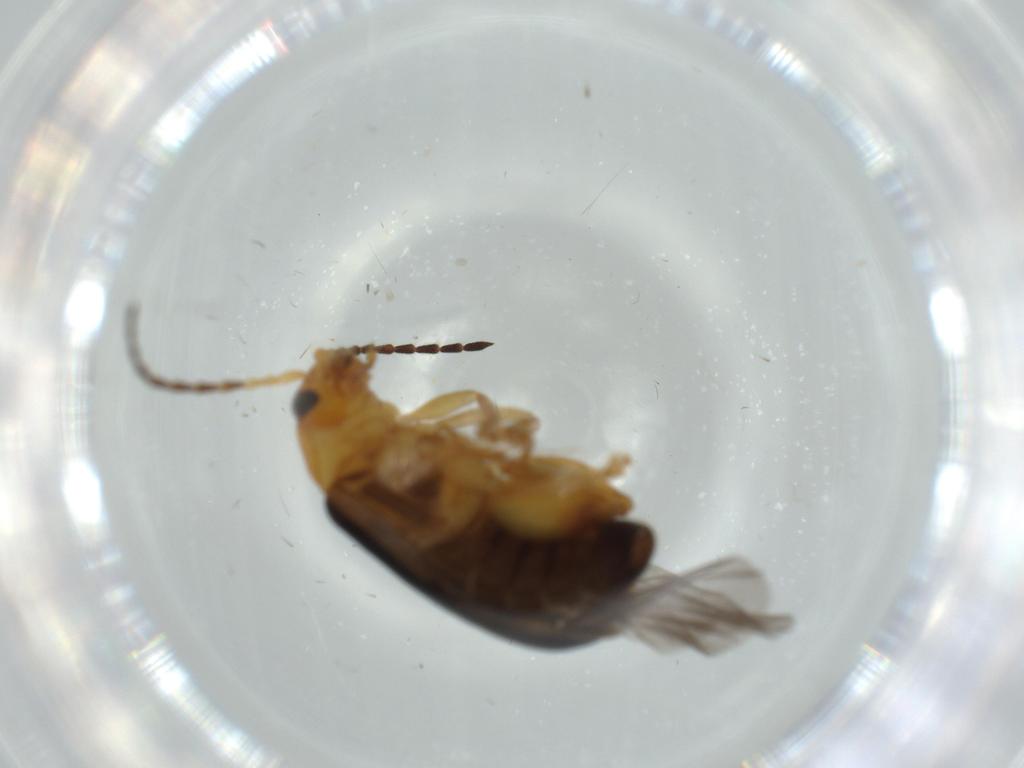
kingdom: Animalia
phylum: Arthropoda
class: Insecta
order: Coleoptera
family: Chrysomelidae
